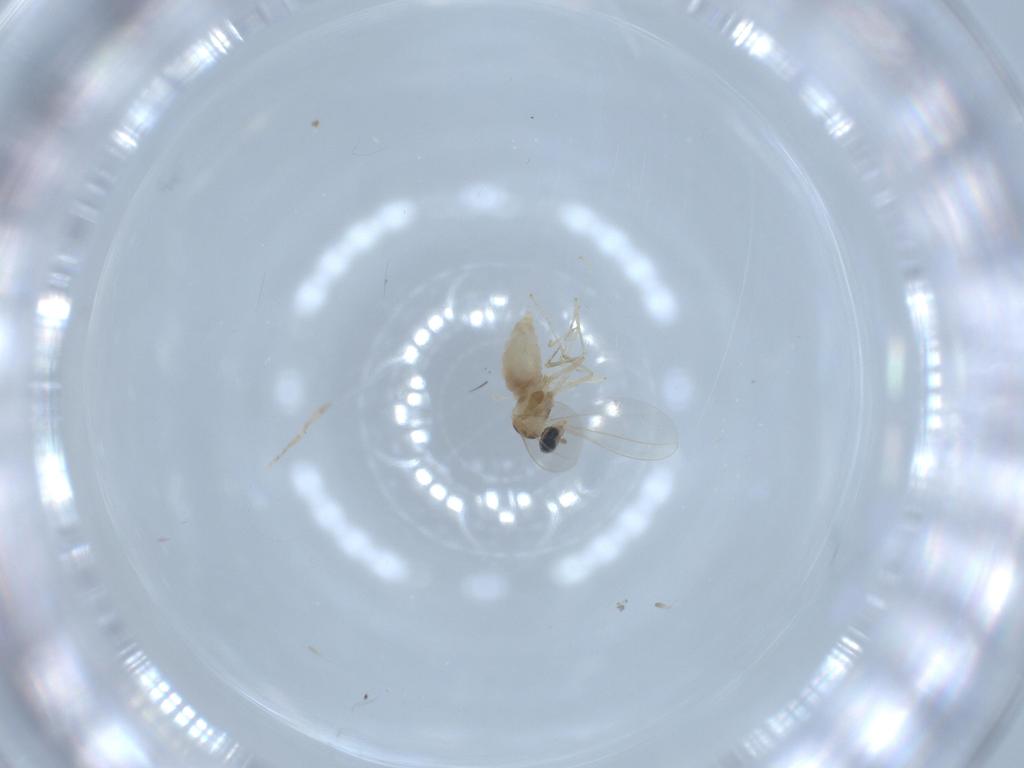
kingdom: Animalia
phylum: Arthropoda
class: Insecta
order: Diptera
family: Cecidomyiidae
